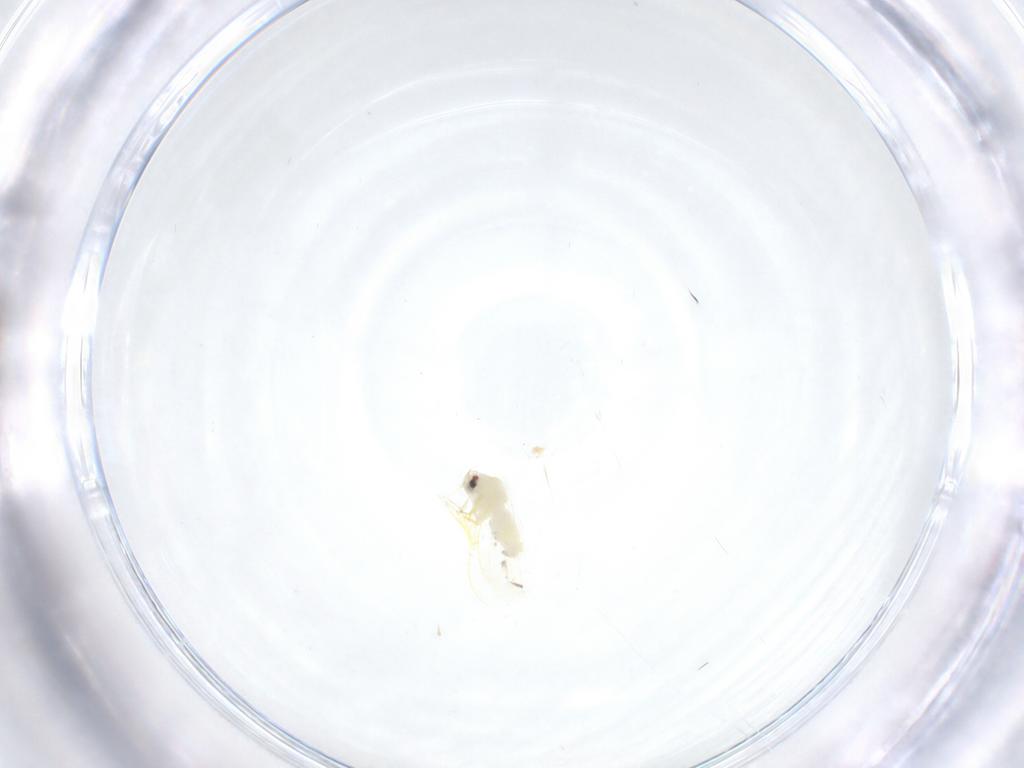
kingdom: Animalia
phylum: Arthropoda
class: Insecta
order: Hemiptera
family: Aleyrodidae
